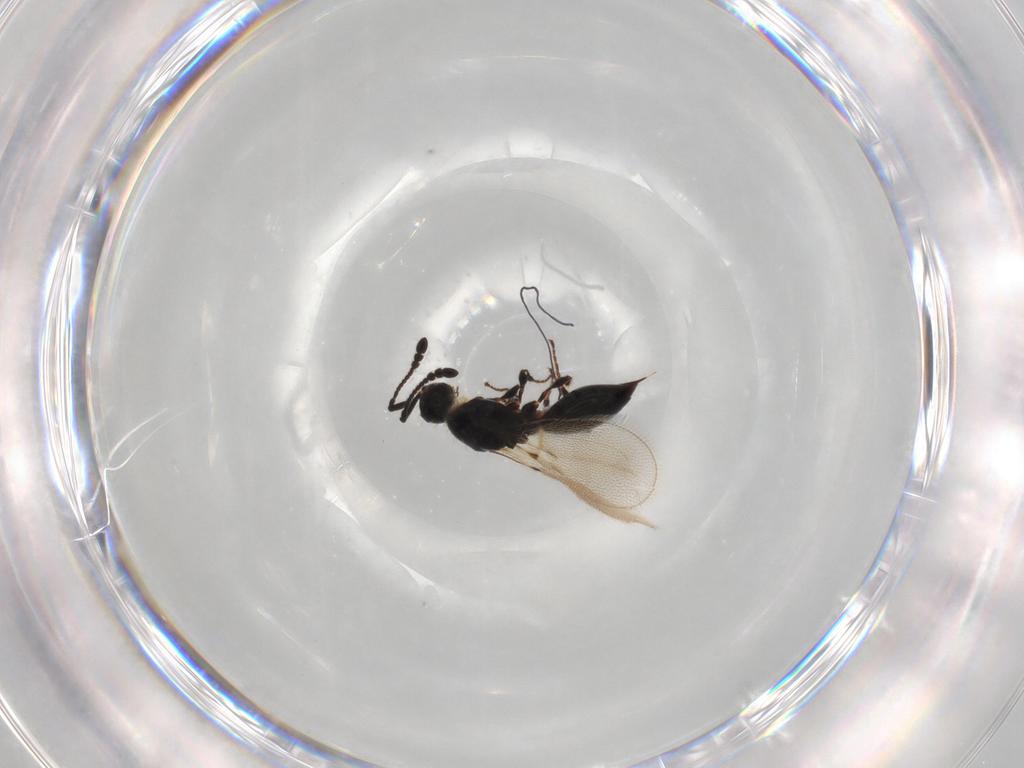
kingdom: Animalia
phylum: Arthropoda
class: Insecta
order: Hymenoptera
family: Diapriidae
